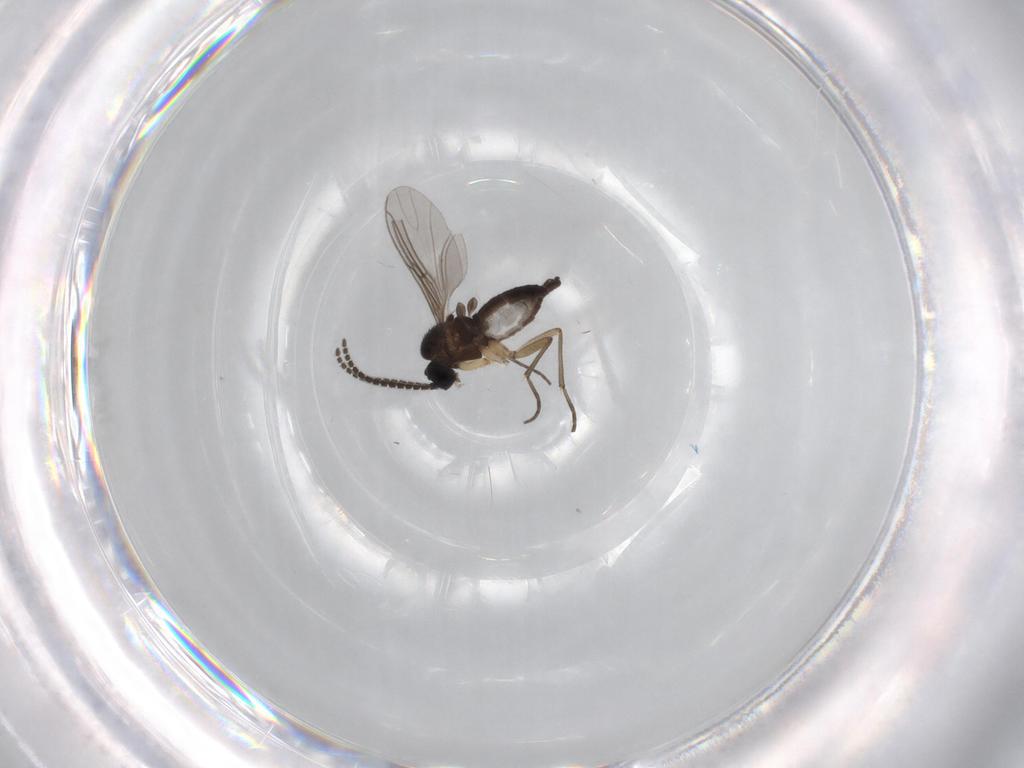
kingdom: Animalia
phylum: Arthropoda
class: Insecta
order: Diptera
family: Sciaridae
